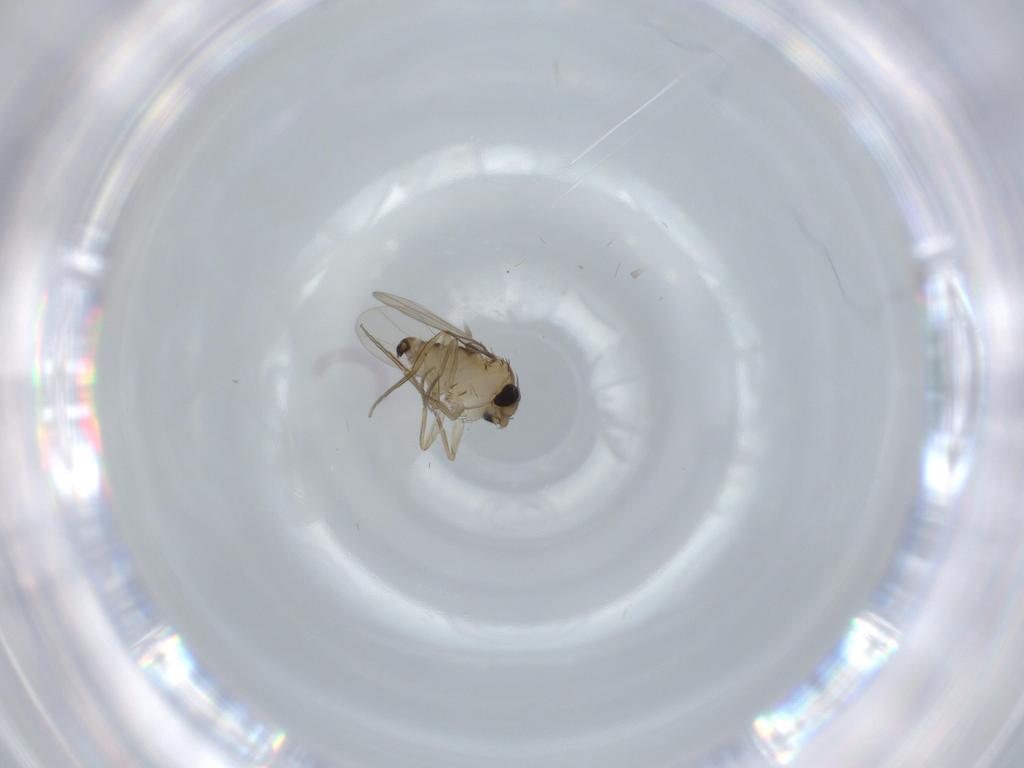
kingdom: Animalia
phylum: Arthropoda
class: Insecta
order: Diptera
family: Phoridae
